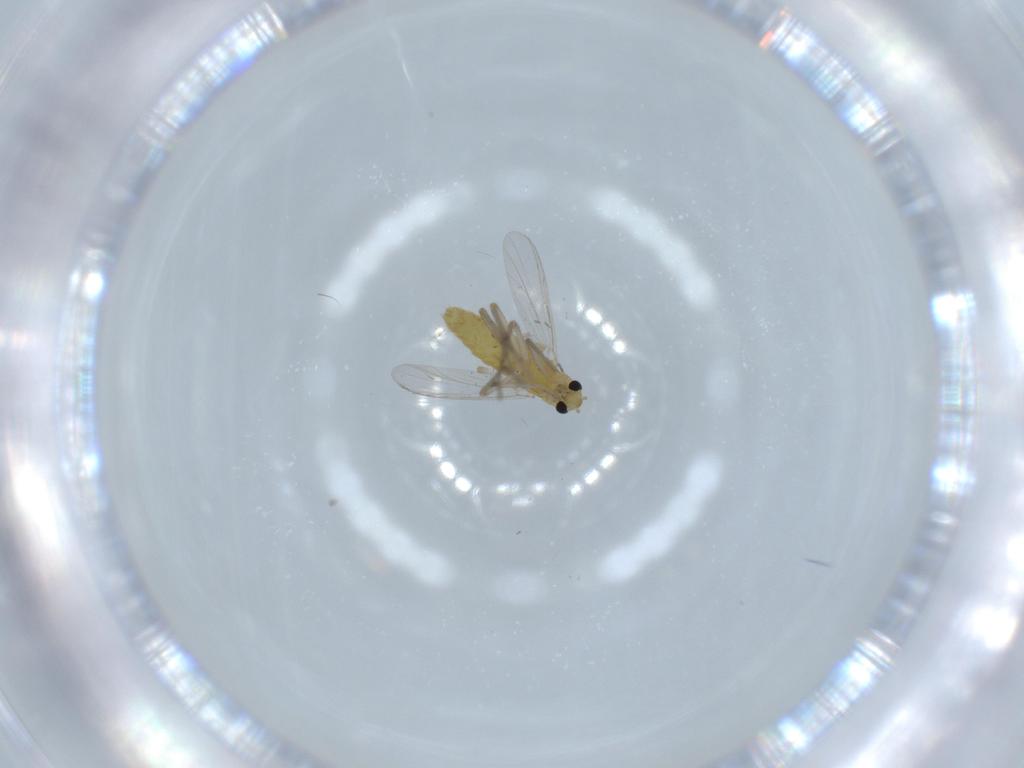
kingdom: Animalia
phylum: Arthropoda
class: Insecta
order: Diptera
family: Chironomidae
